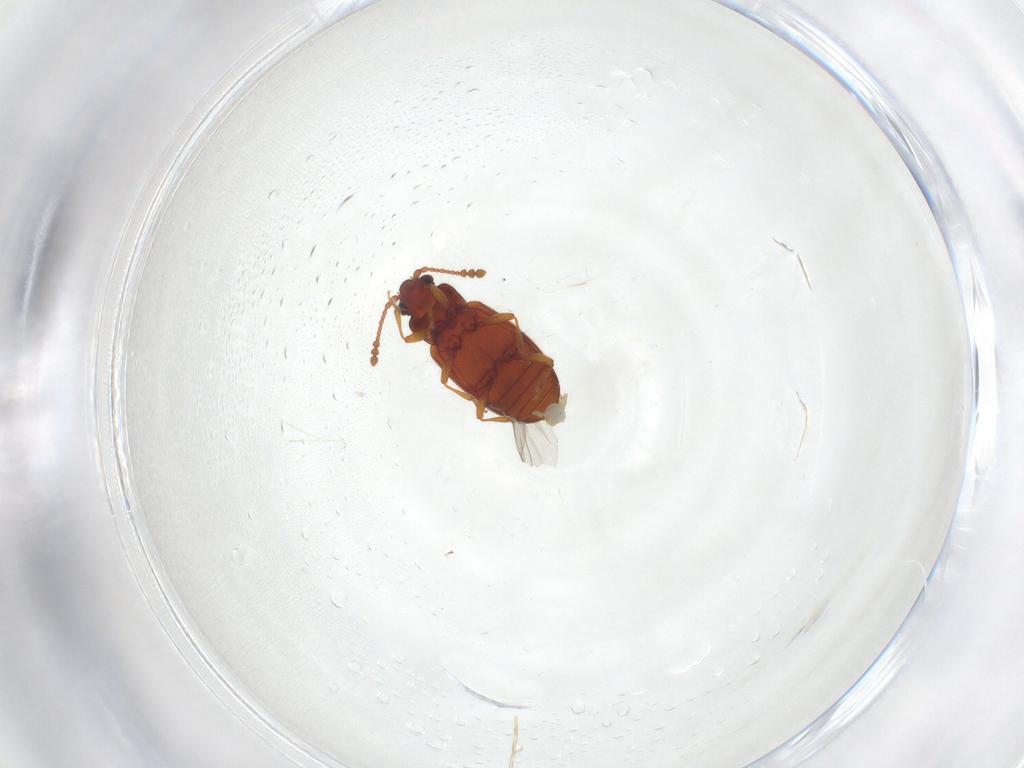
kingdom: Animalia
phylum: Arthropoda
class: Insecta
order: Coleoptera
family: Cryptophagidae
